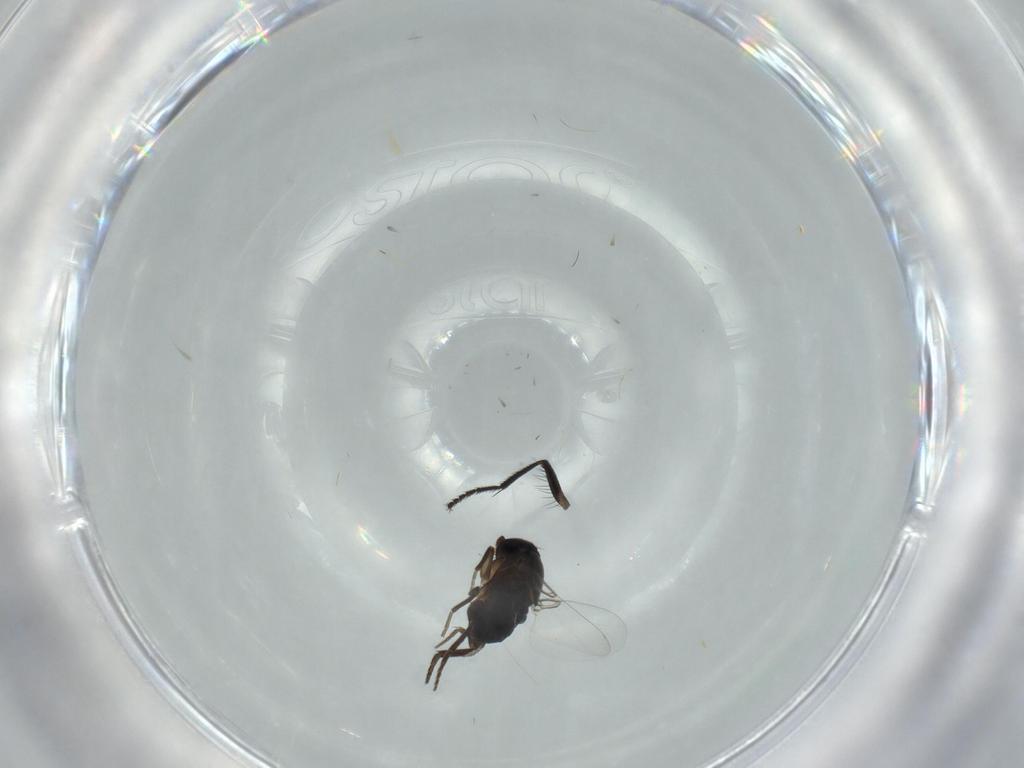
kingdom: Animalia
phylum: Arthropoda
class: Insecta
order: Diptera
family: Phoridae
